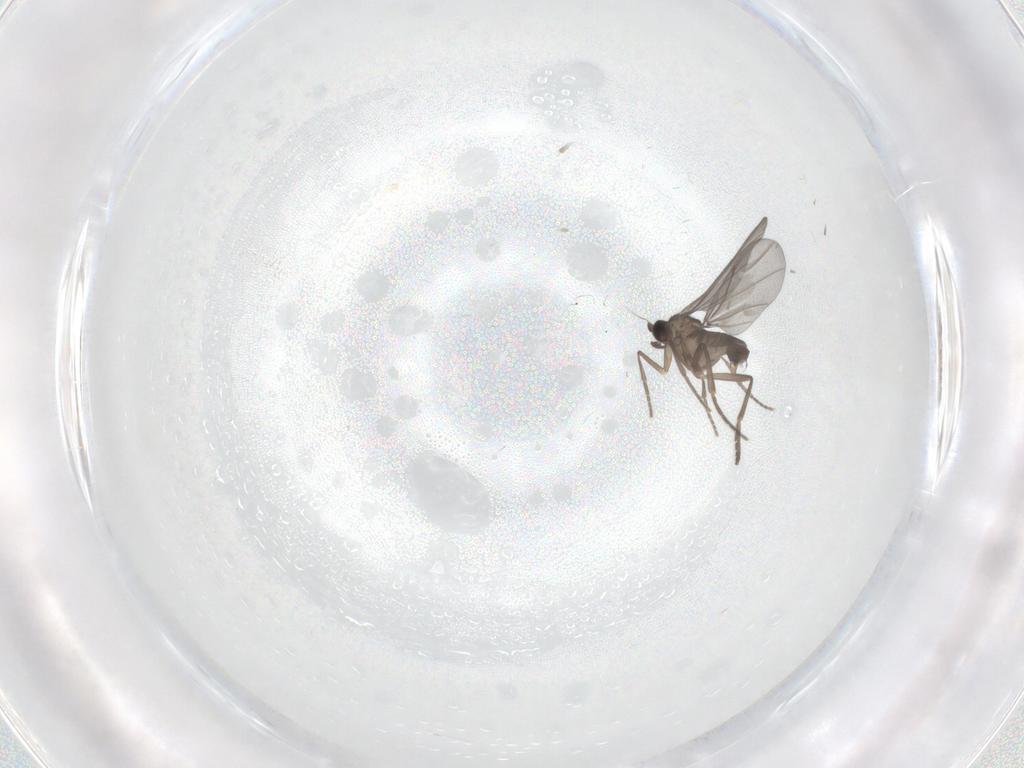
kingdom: Animalia
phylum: Arthropoda
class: Insecta
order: Diptera
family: Phoridae
